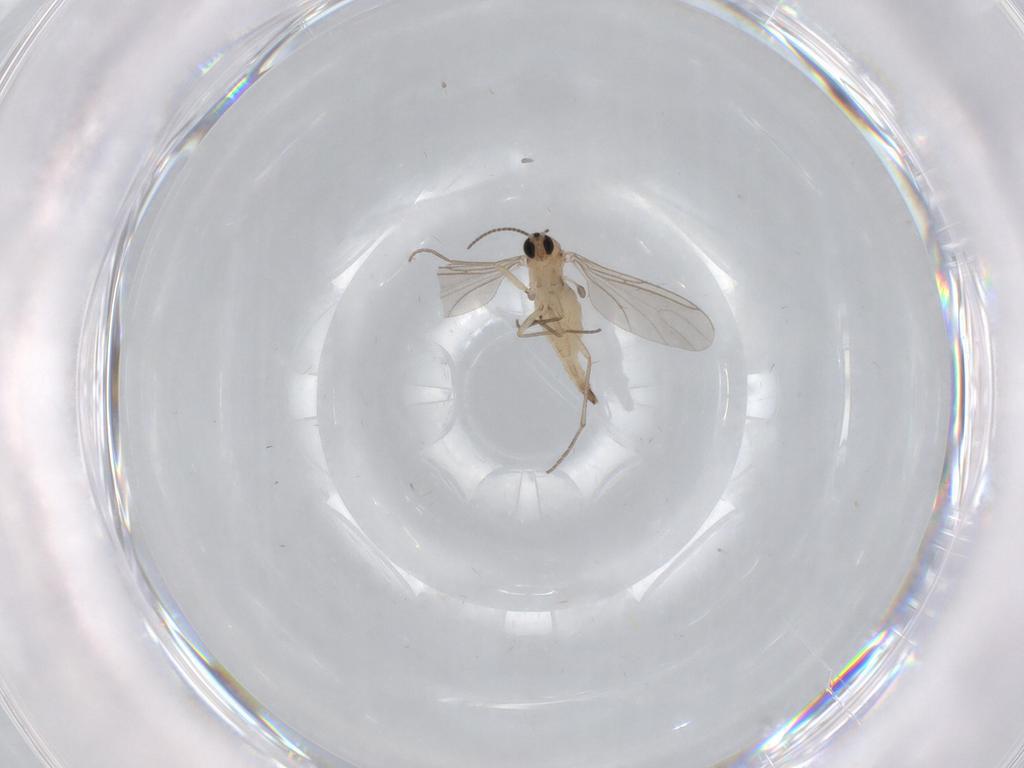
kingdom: Animalia
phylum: Arthropoda
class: Insecta
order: Diptera
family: Sciaridae
